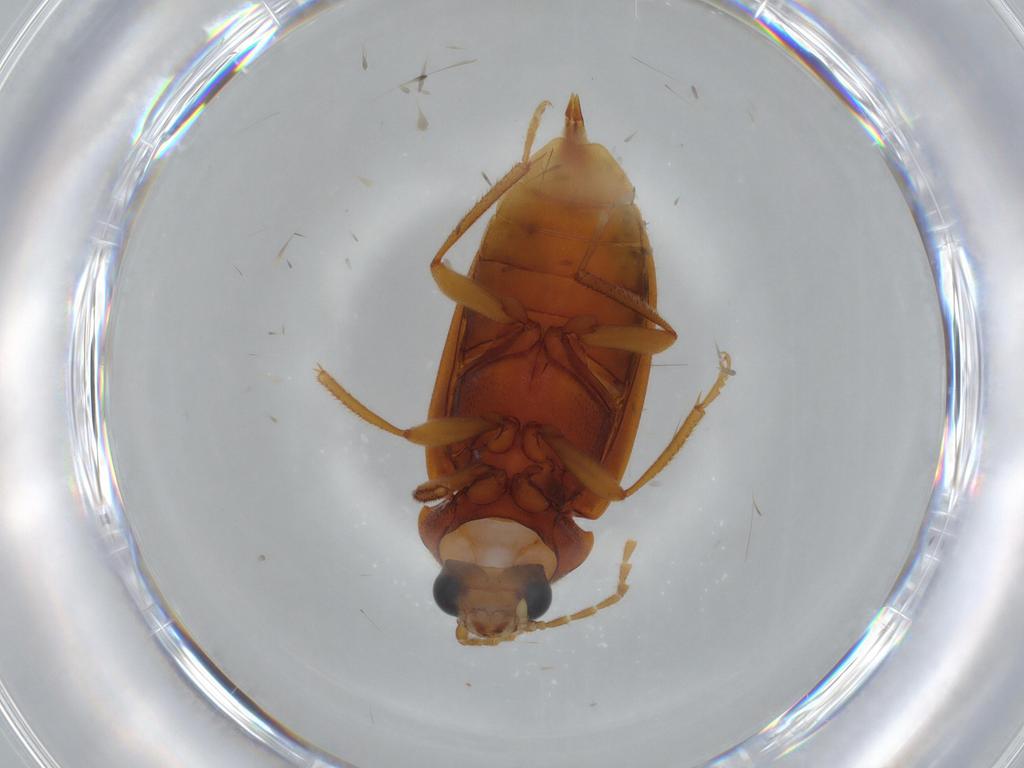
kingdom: Animalia
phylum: Arthropoda
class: Insecta
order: Coleoptera
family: Ptilodactylidae
